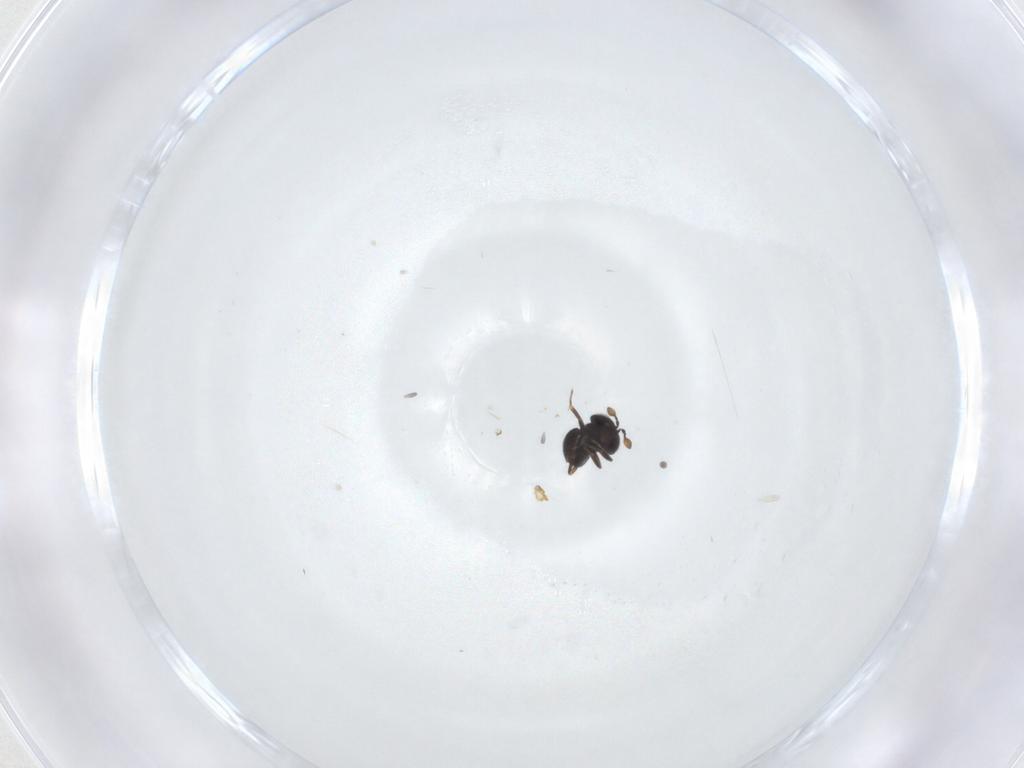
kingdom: Animalia
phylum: Arthropoda
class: Insecta
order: Hymenoptera
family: Scelionidae
